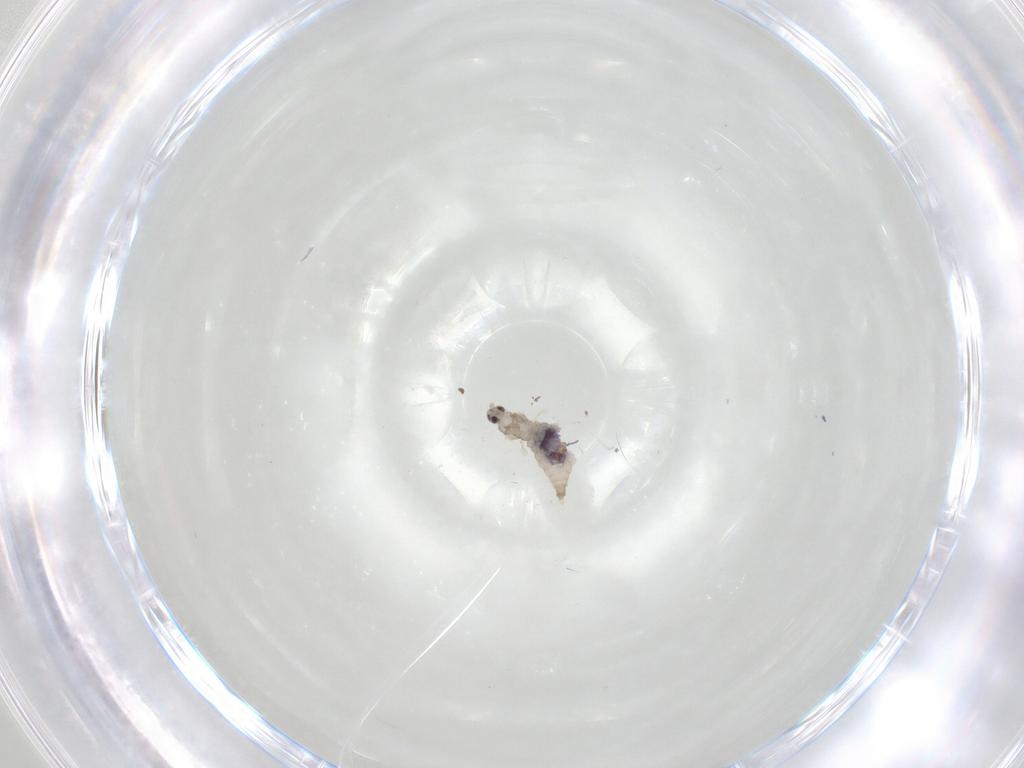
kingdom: Animalia
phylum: Arthropoda
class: Insecta
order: Diptera
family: Cecidomyiidae
